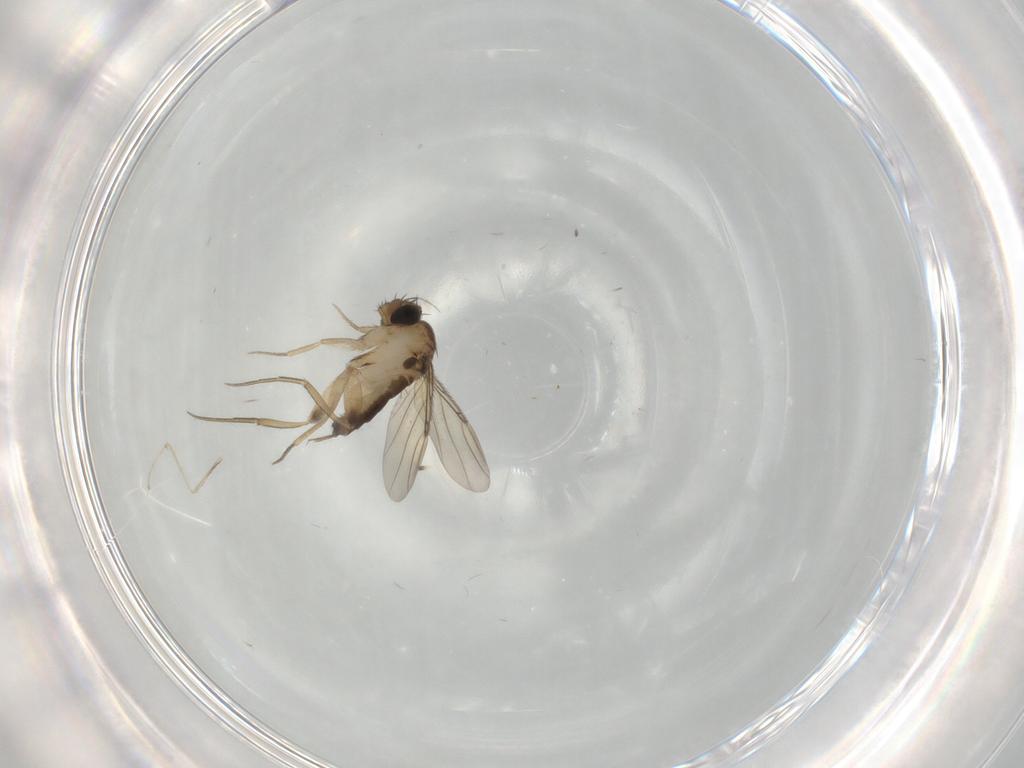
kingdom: Animalia
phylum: Arthropoda
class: Insecta
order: Diptera
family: Phoridae
